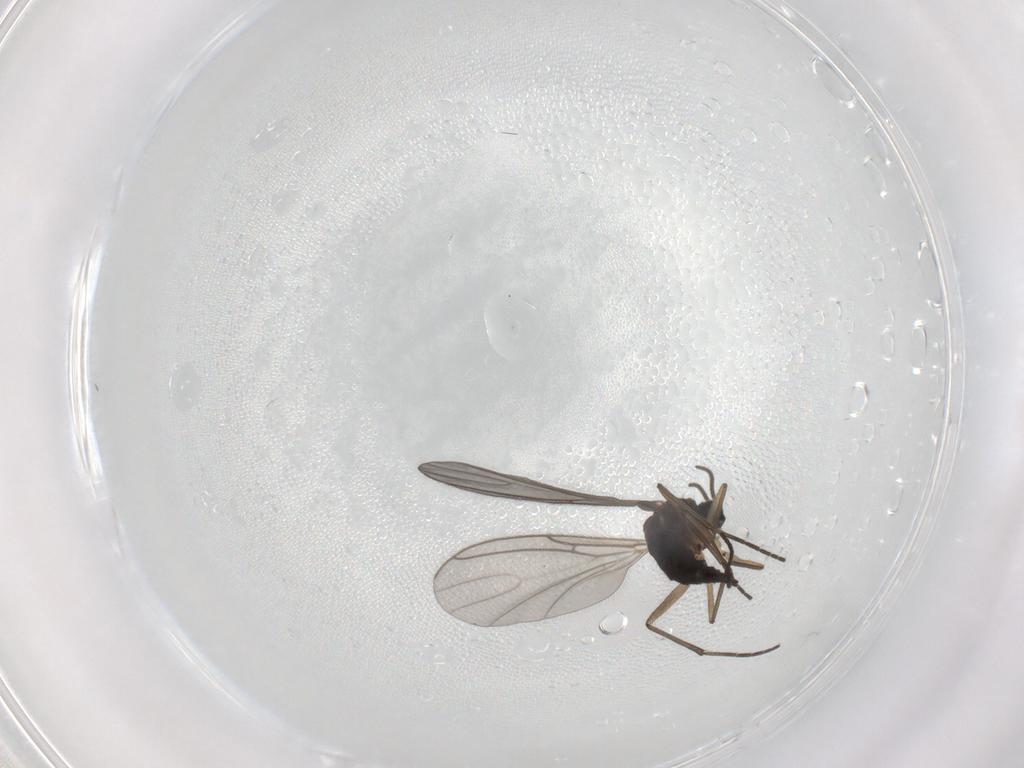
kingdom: Animalia
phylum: Arthropoda
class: Insecta
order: Diptera
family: Sciaridae
